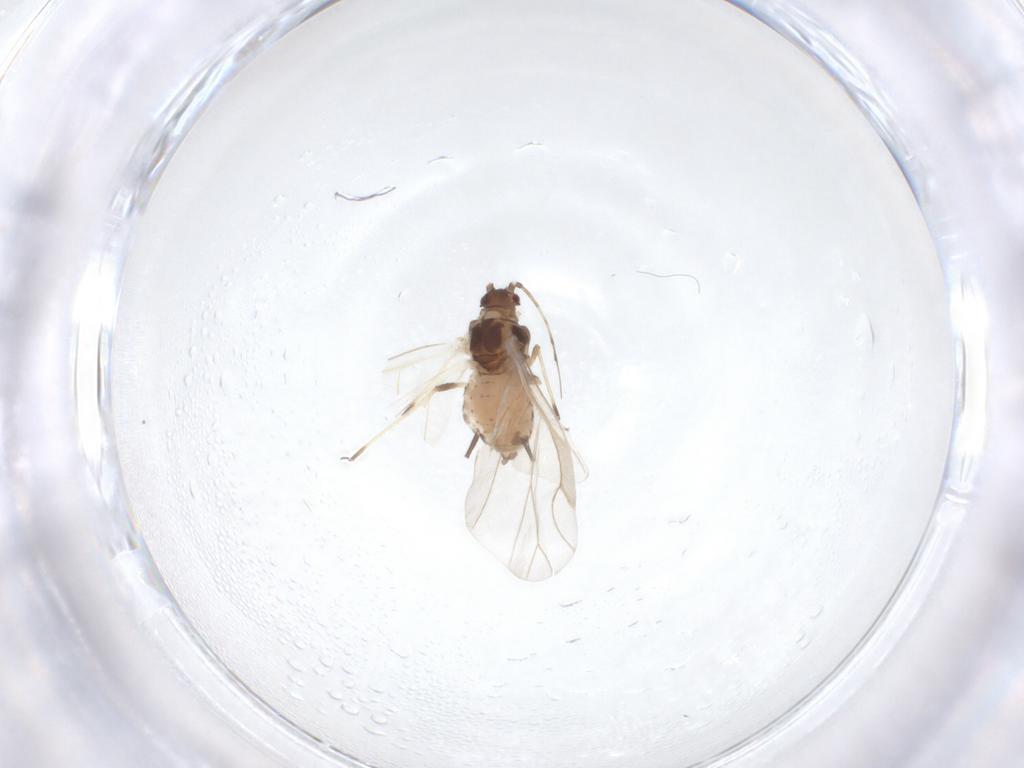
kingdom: Animalia
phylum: Arthropoda
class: Insecta
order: Hemiptera
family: Aphididae
